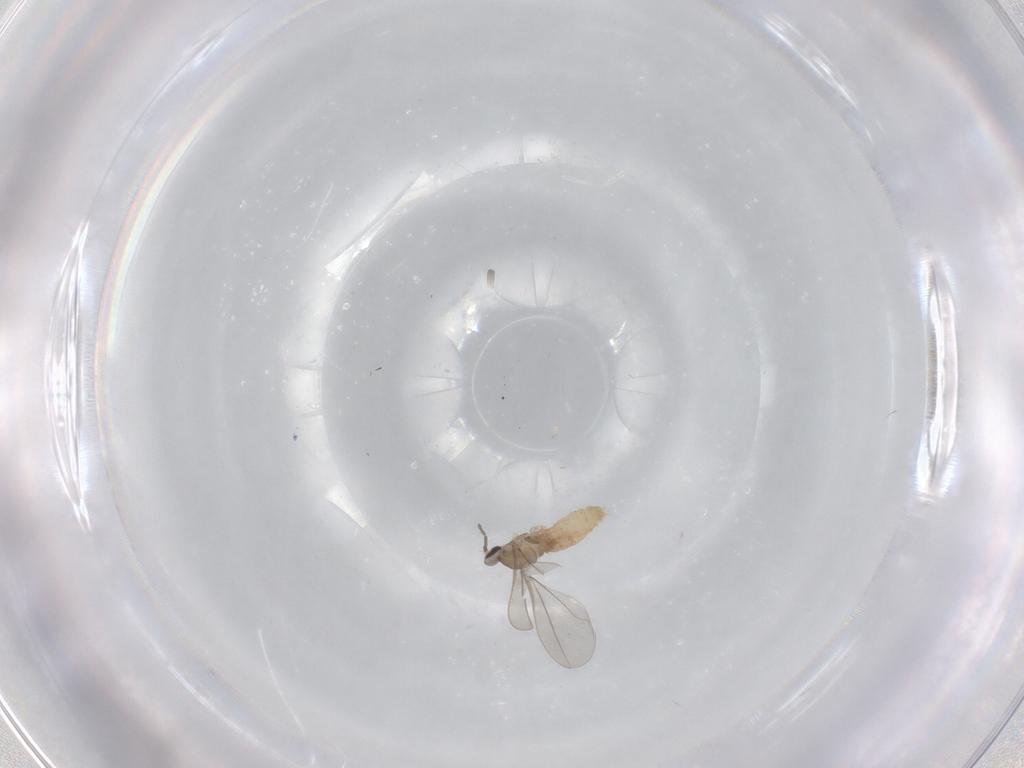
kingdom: Animalia
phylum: Arthropoda
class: Insecta
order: Diptera
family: Cecidomyiidae
